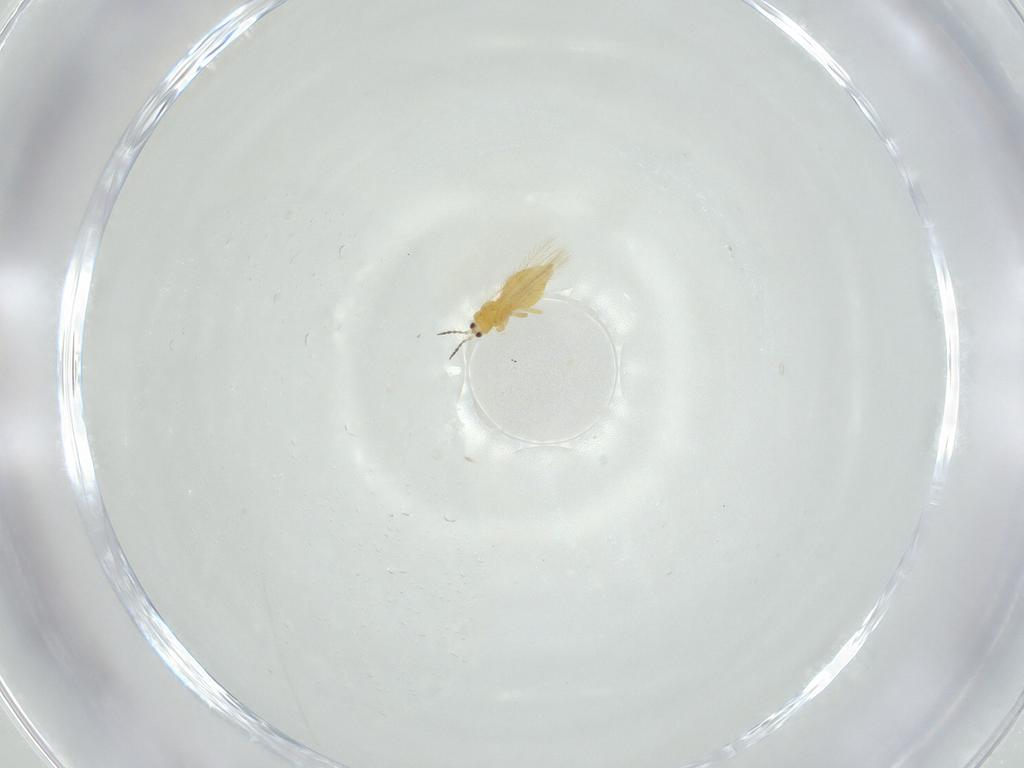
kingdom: Animalia
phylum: Arthropoda
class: Insecta
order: Thysanoptera
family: Melanthripidae
